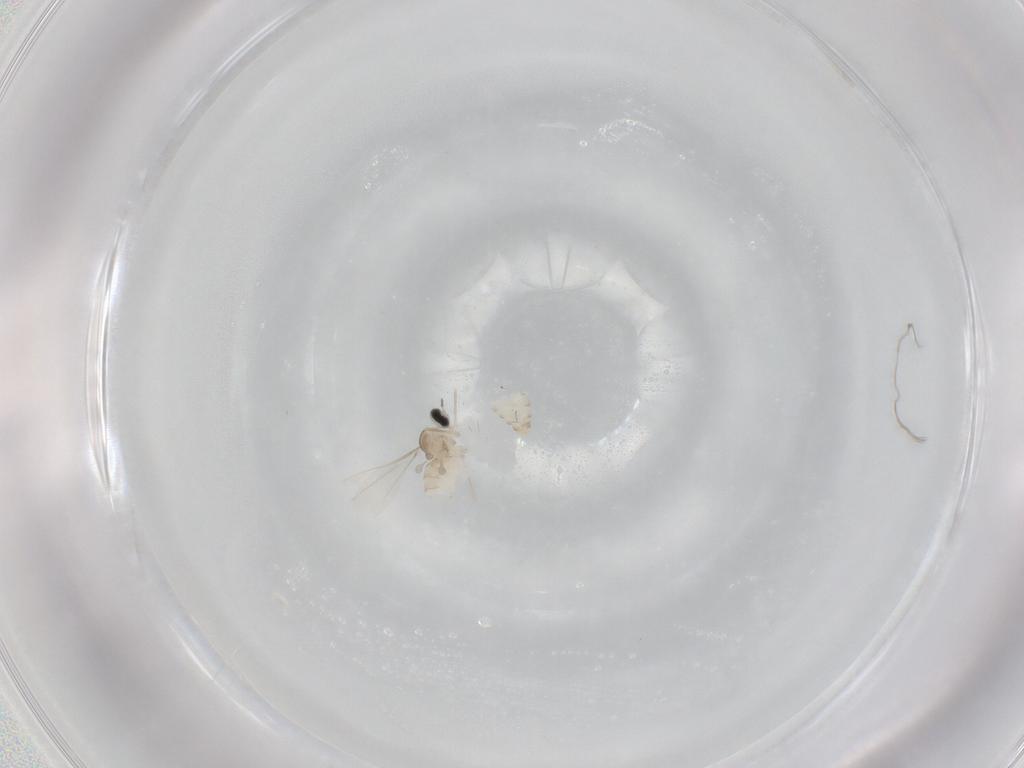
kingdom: Animalia
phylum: Arthropoda
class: Insecta
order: Diptera
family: Cecidomyiidae
